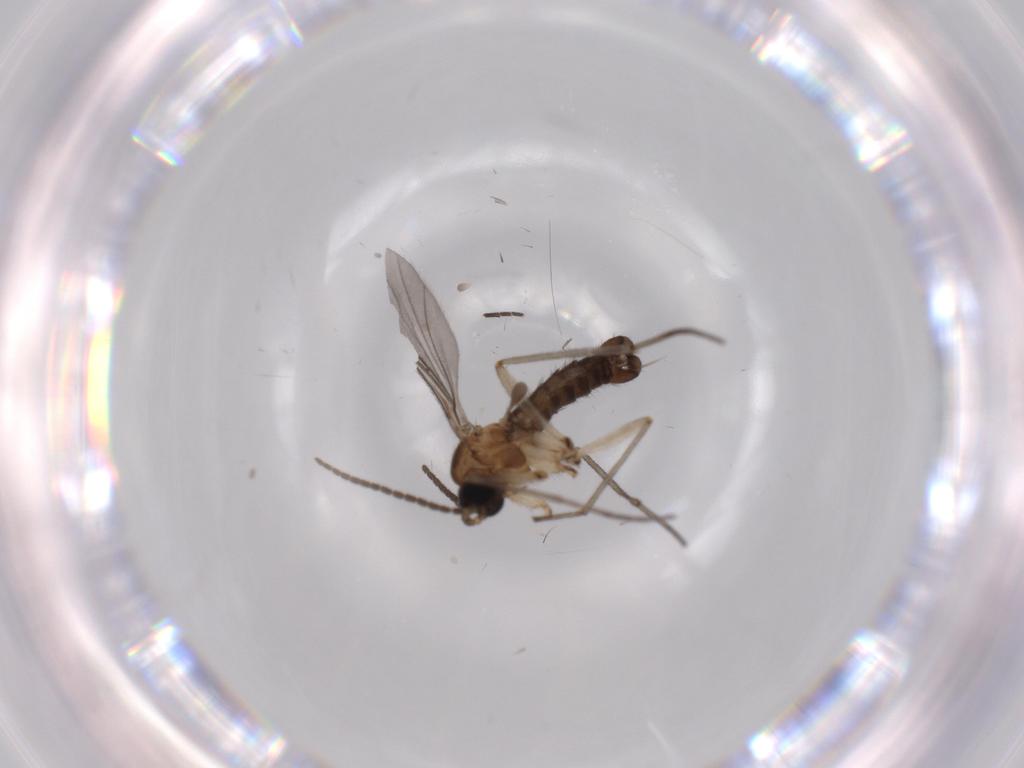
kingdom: Animalia
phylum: Arthropoda
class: Insecta
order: Diptera
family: Sciaridae
